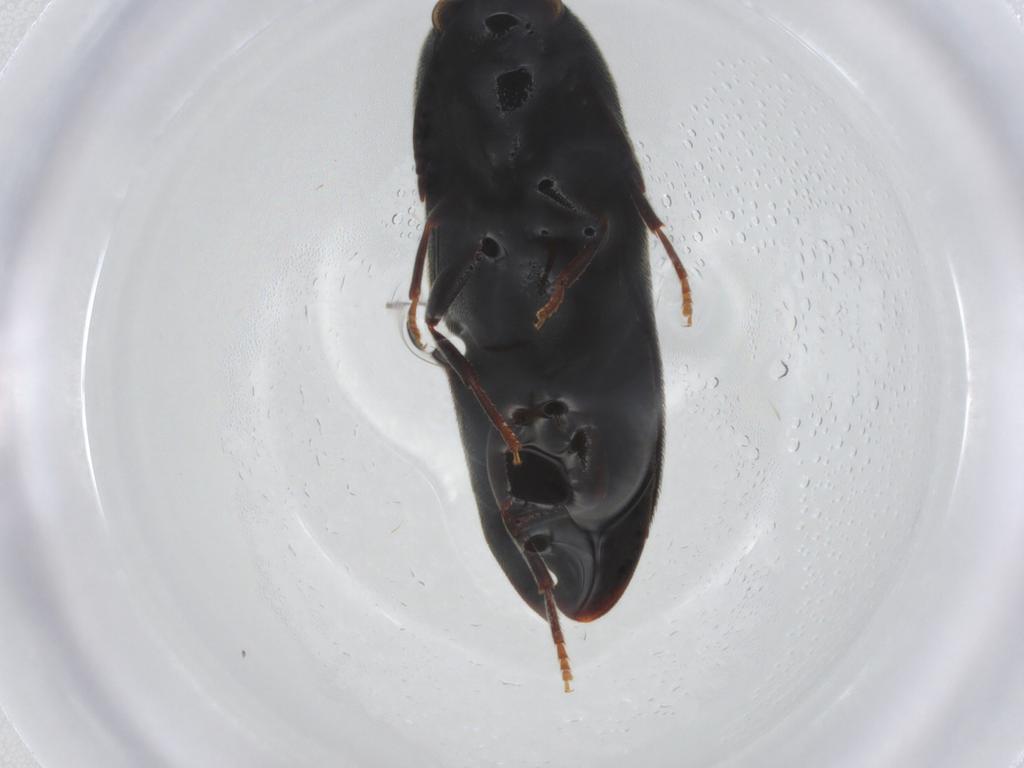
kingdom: Animalia
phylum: Arthropoda
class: Insecta
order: Coleoptera
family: Eucnemidae
